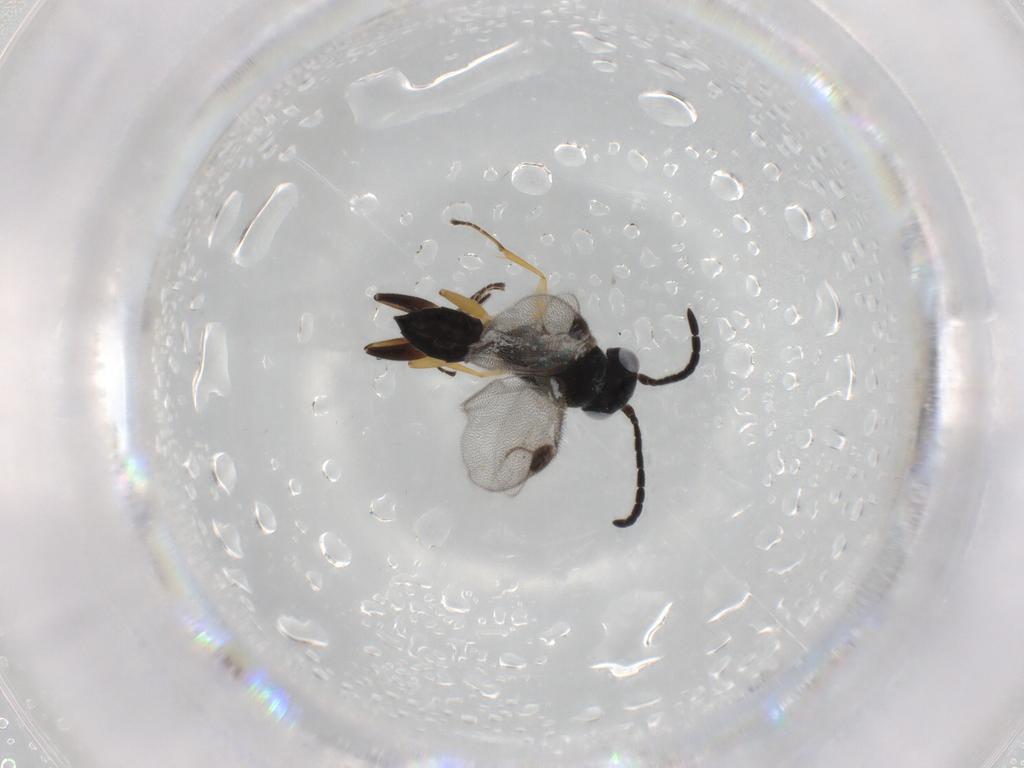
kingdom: Animalia
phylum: Arthropoda
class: Insecta
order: Hymenoptera
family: Dryinidae
